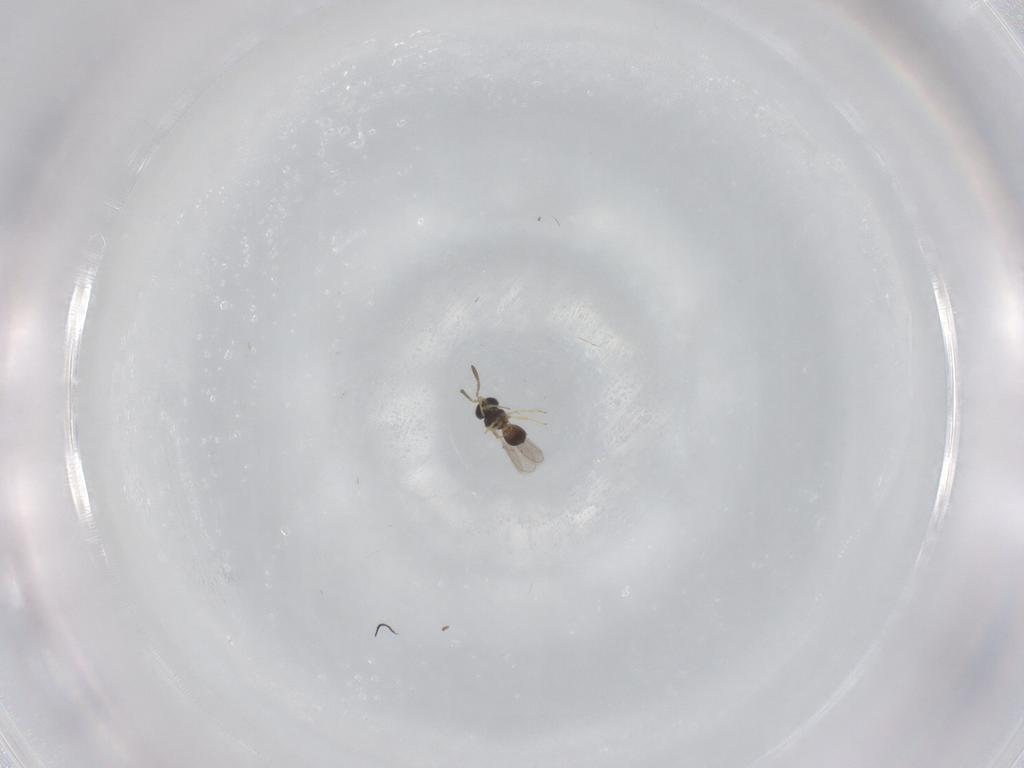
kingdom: Animalia
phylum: Arthropoda
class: Insecta
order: Hymenoptera
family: Scelionidae
